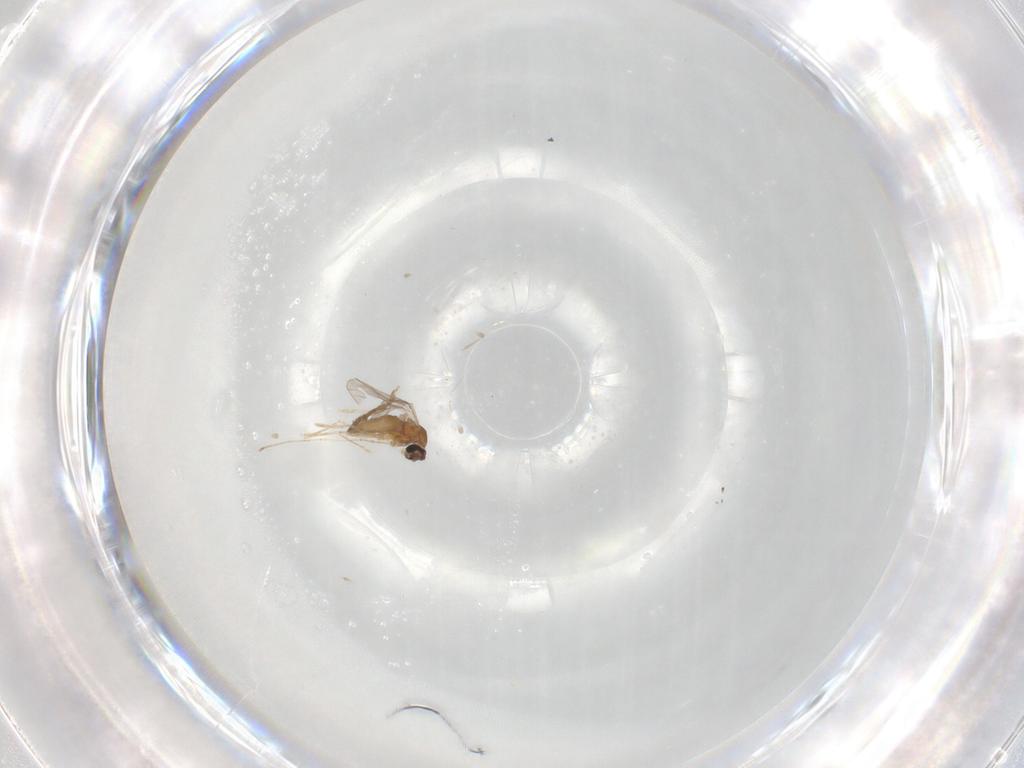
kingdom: Animalia
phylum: Arthropoda
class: Insecta
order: Diptera
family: Cecidomyiidae
